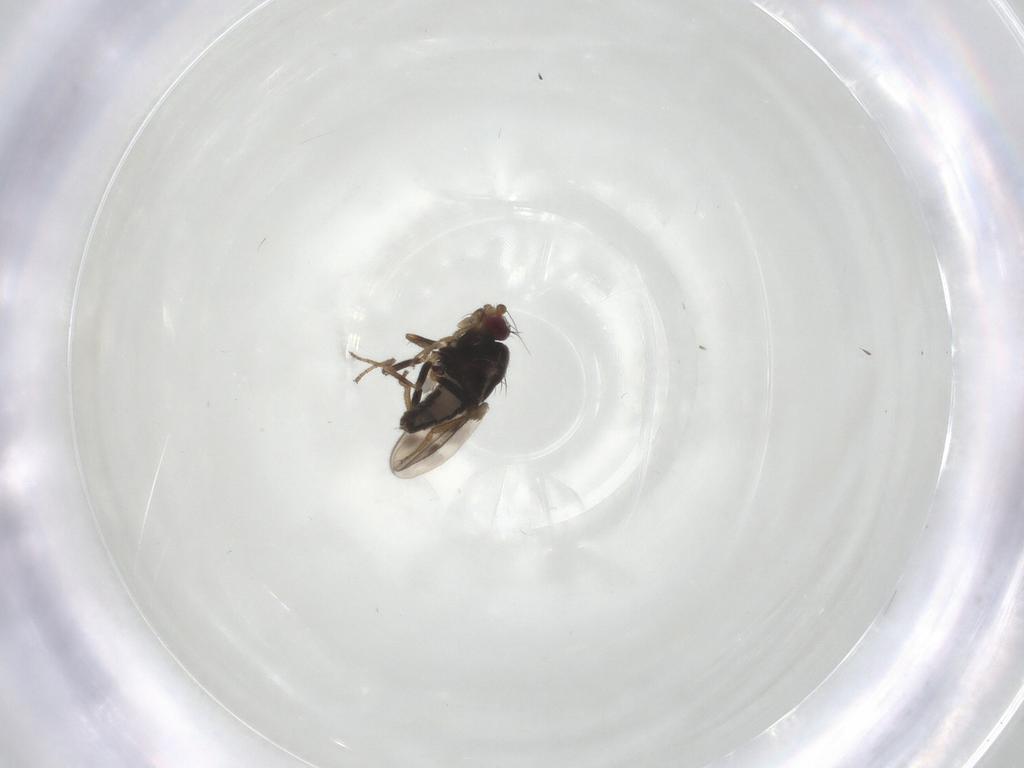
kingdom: Animalia
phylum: Arthropoda
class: Insecta
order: Diptera
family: Sphaeroceridae
